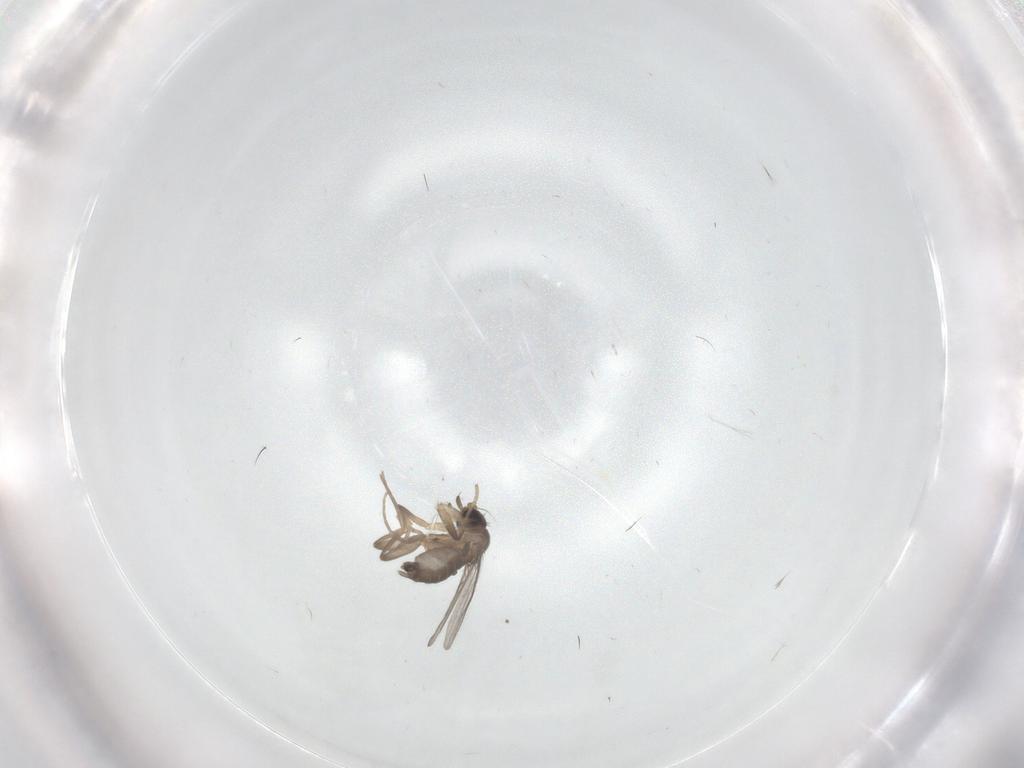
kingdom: Animalia
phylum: Arthropoda
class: Insecta
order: Diptera
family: Phoridae
